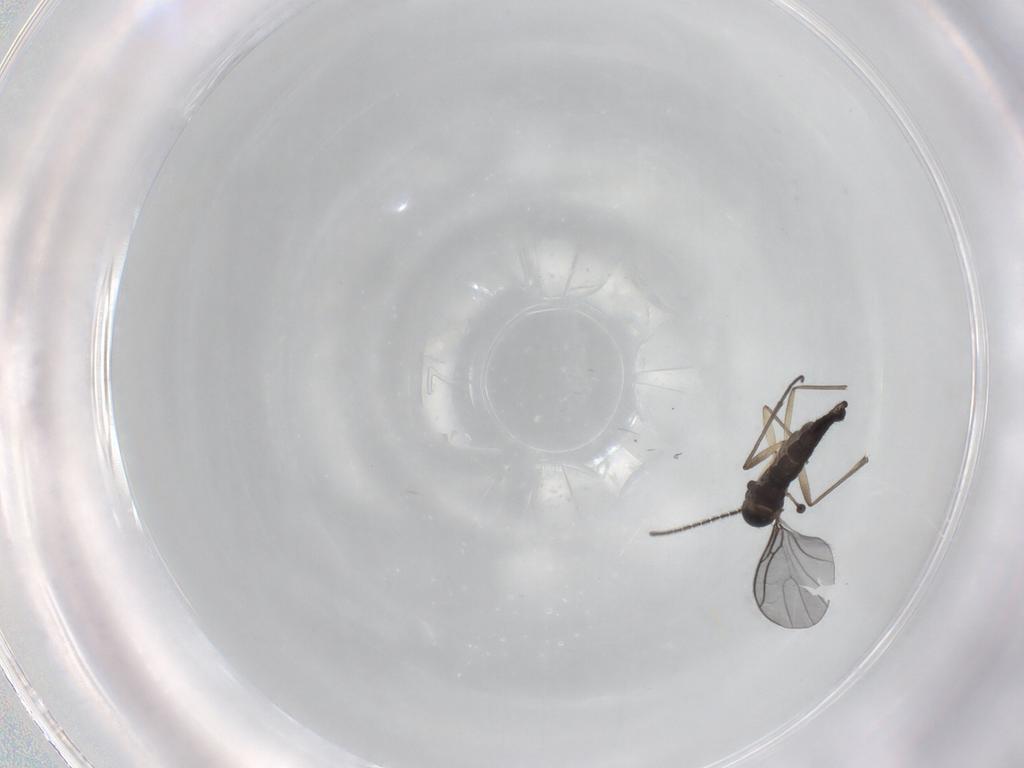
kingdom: Animalia
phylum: Arthropoda
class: Insecta
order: Diptera
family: Sciaridae
